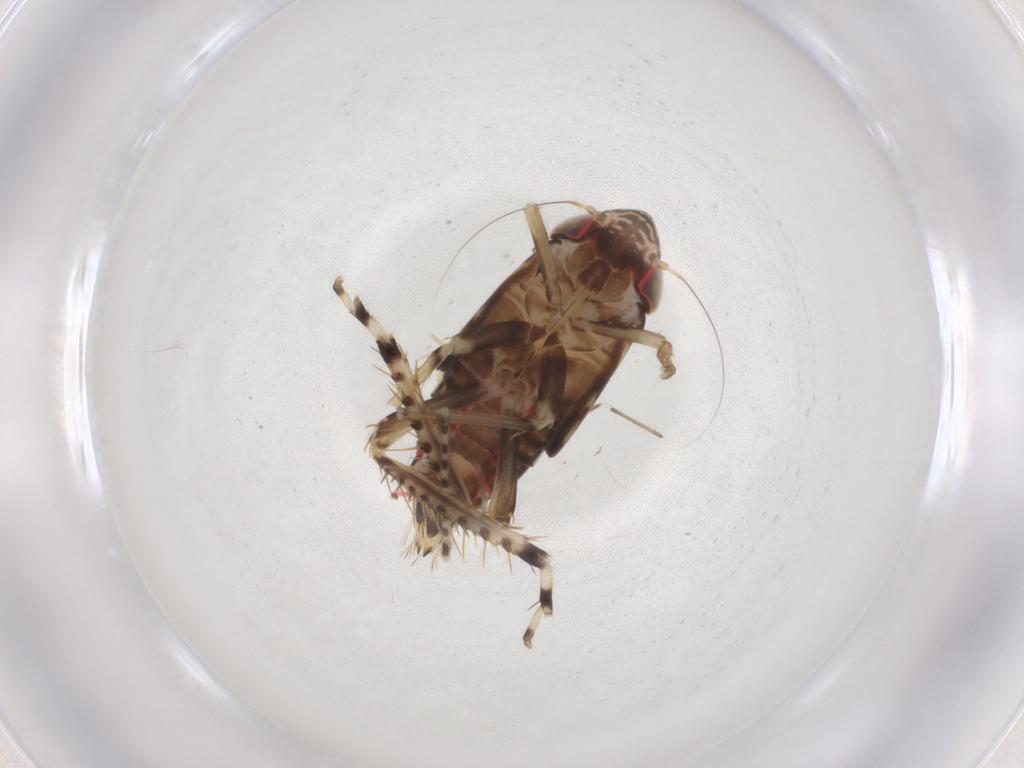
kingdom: Animalia
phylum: Arthropoda
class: Insecta
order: Hemiptera
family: Cicadellidae
